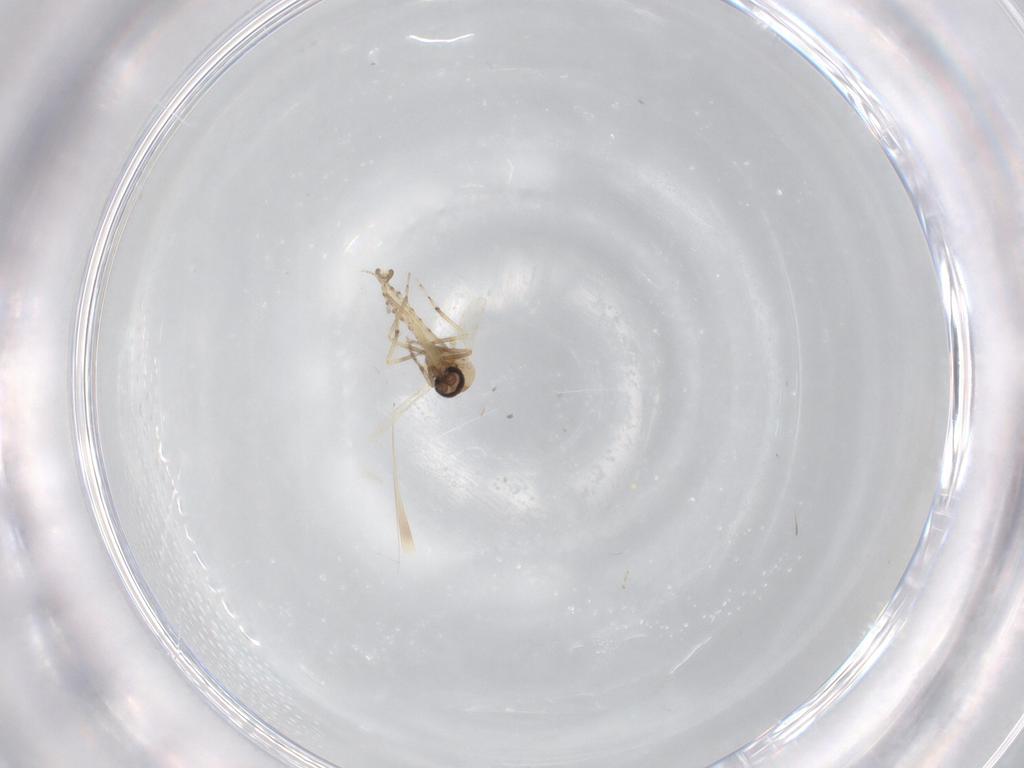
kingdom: Animalia
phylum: Arthropoda
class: Insecta
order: Diptera
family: Ceratopogonidae
